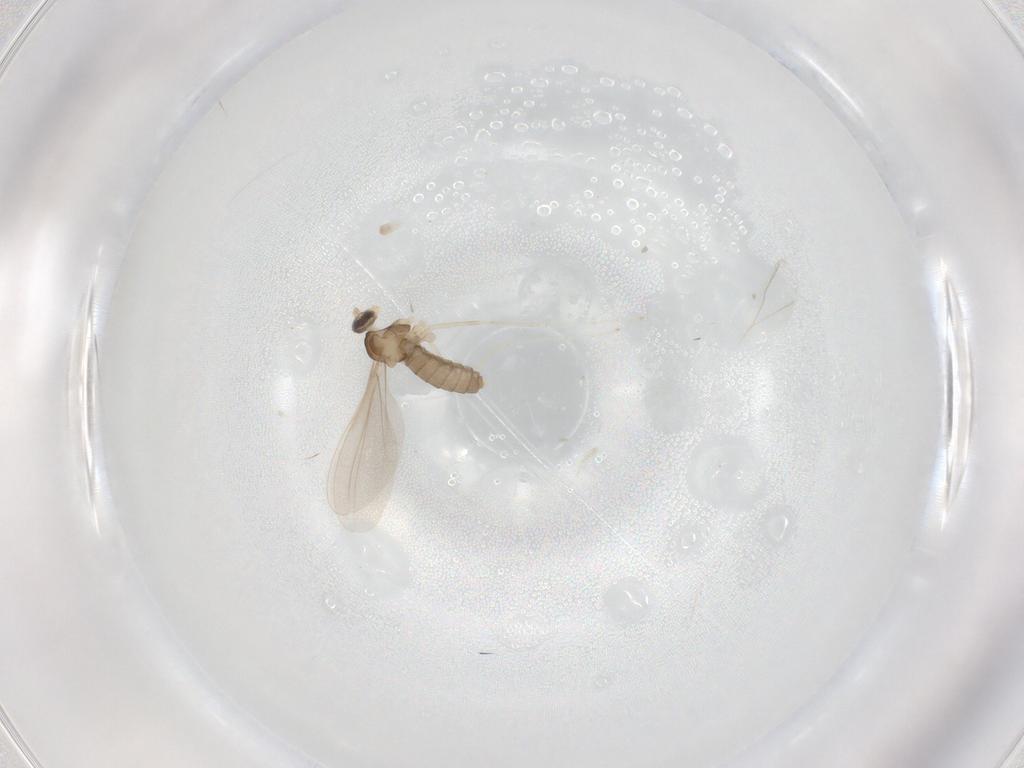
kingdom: Animalia
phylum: Arthropoda
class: Insecta
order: Diptera
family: Cecidomyiidae
